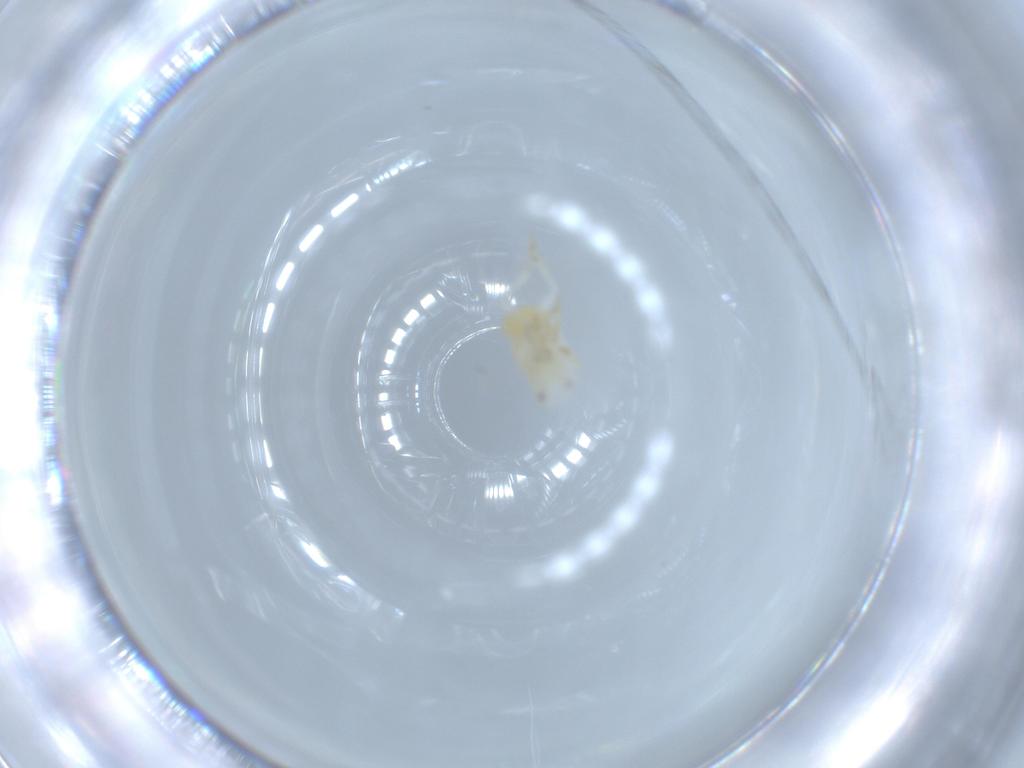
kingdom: Animalia
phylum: Arthropoda
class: Insecta
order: Hemiptera
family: Flatidae
